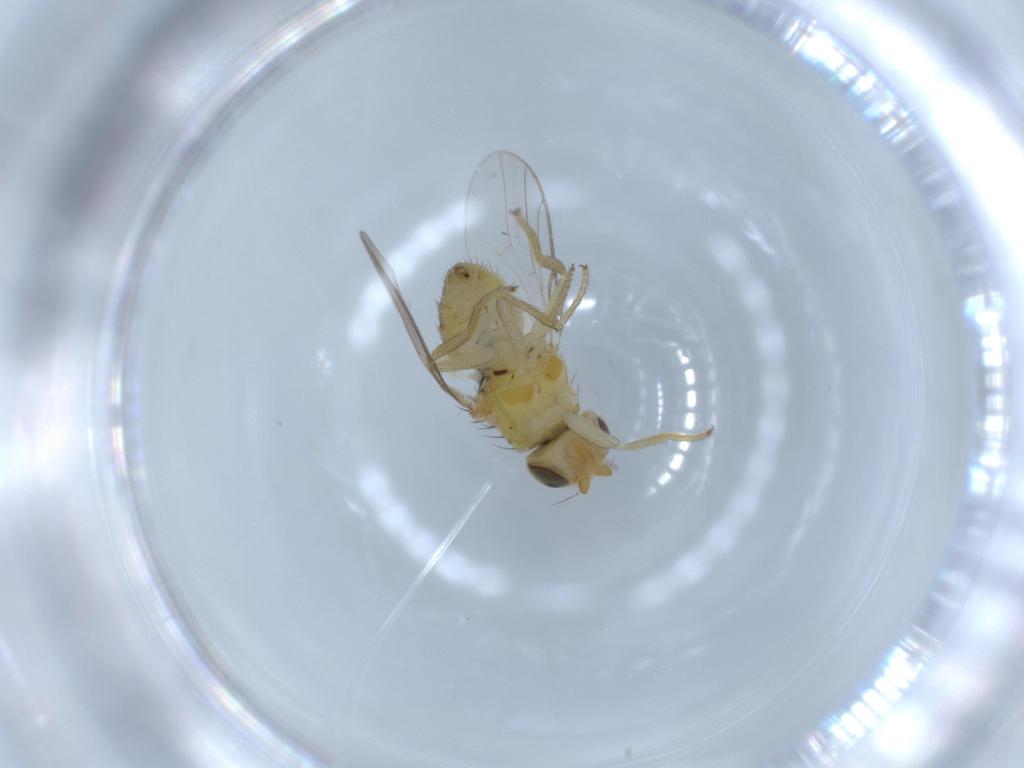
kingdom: Animalia
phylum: Arthropoda
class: Insecta
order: Diptera
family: Chloropidae
